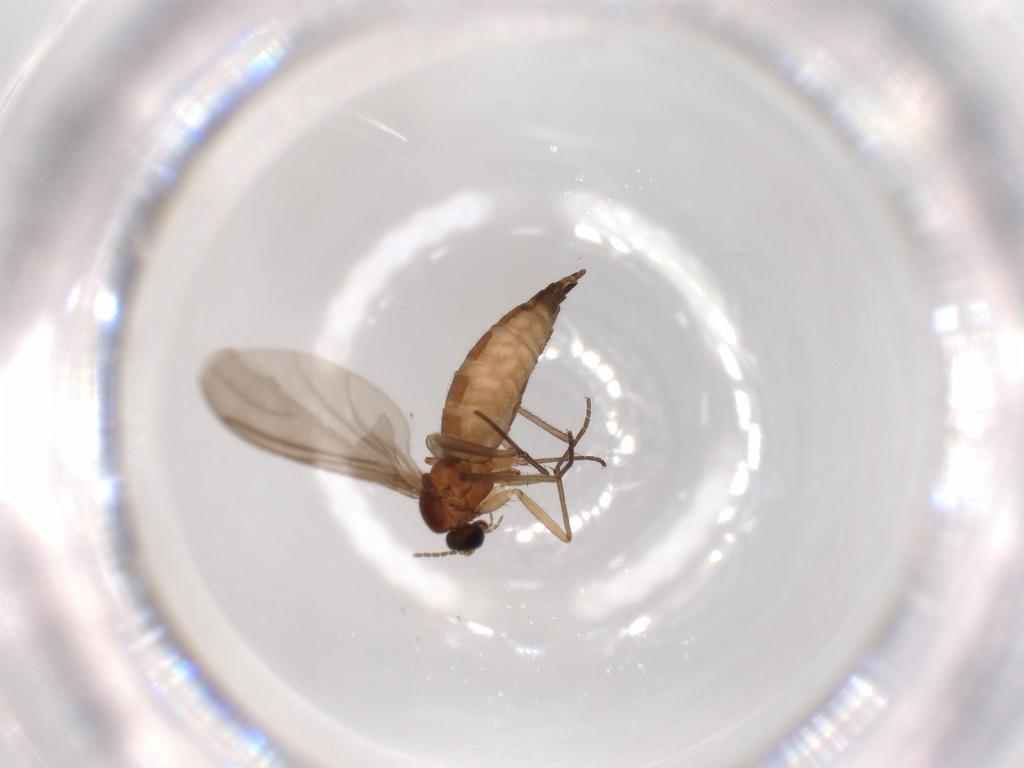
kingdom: Animalia
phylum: Arthropoda
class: Insecta
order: Diptera
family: Sciaridae
